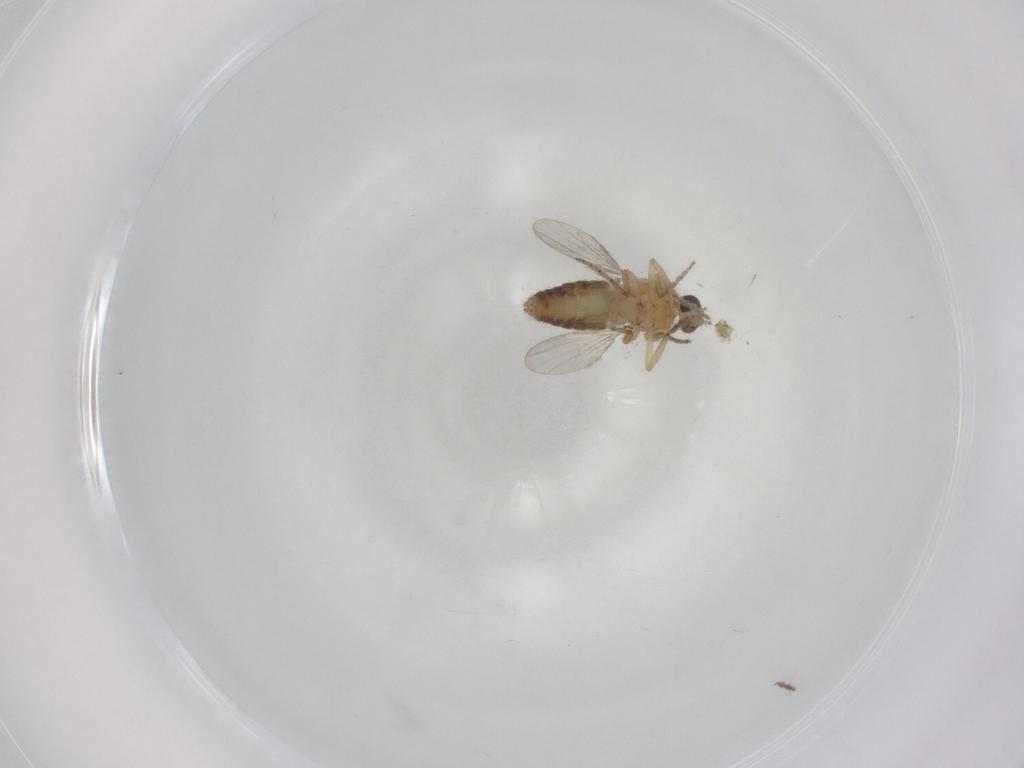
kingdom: Animalia
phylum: Arthropoda
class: Insecta
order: Diptera
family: Ceratopogonidae
